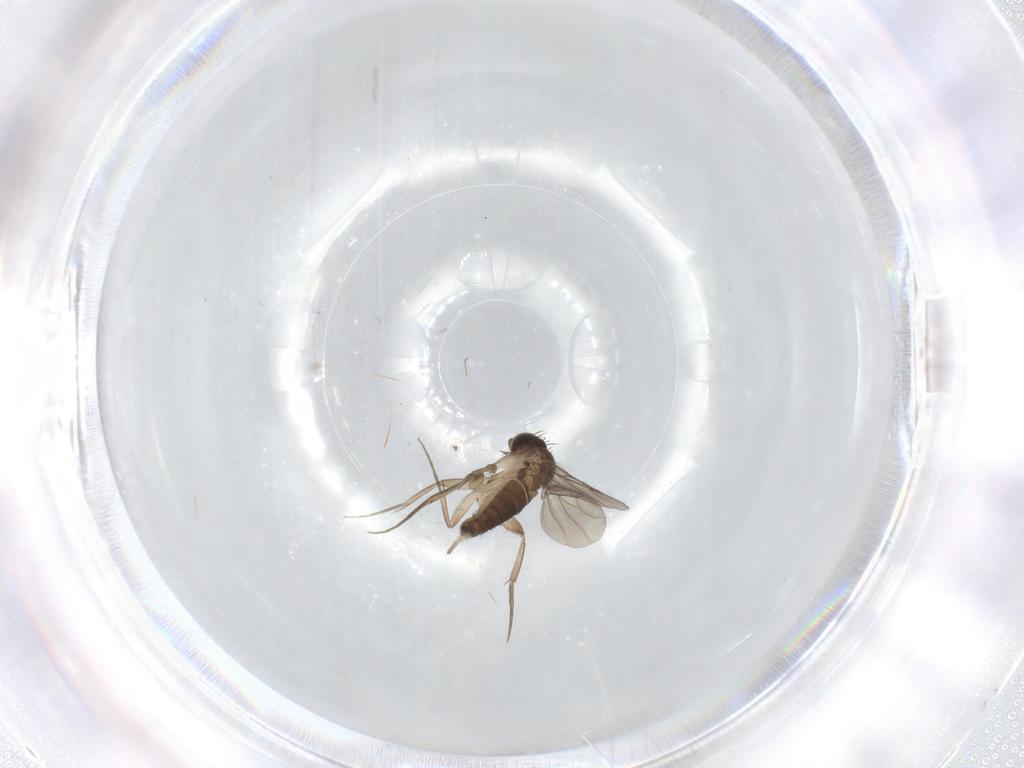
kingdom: Animalia
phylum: Arthropoda
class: Insecta
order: Diptera
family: Phoridae
